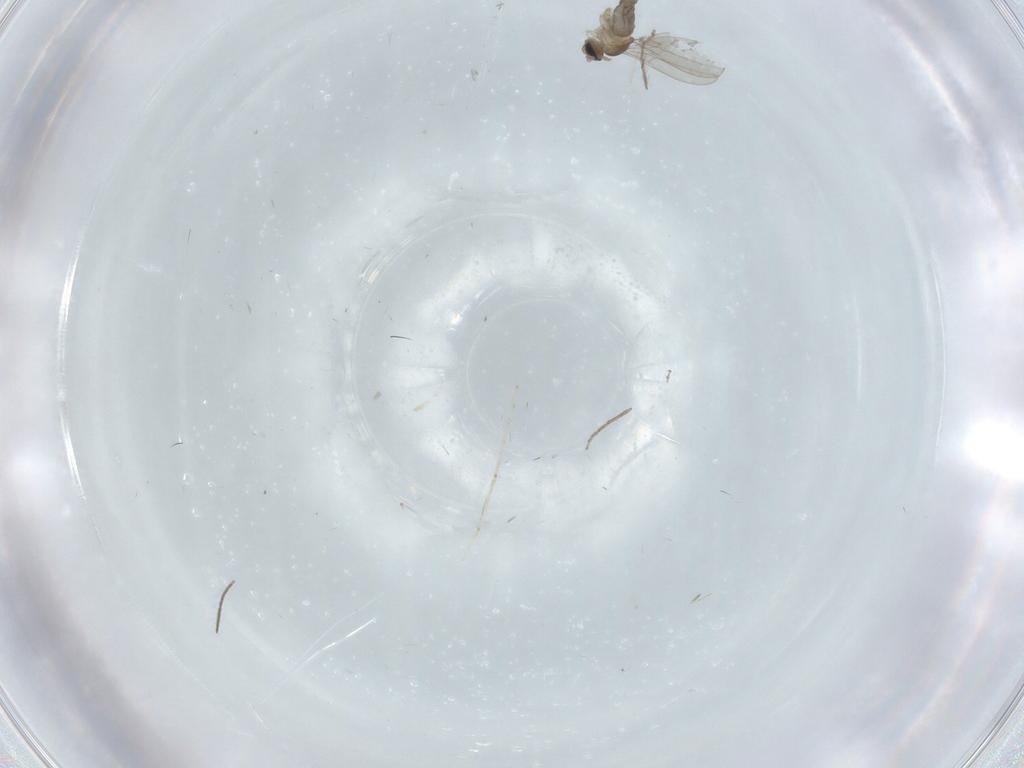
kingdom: Animalia
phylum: Arthropoda
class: Insecta
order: Diptera
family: Cecidomyiidae
